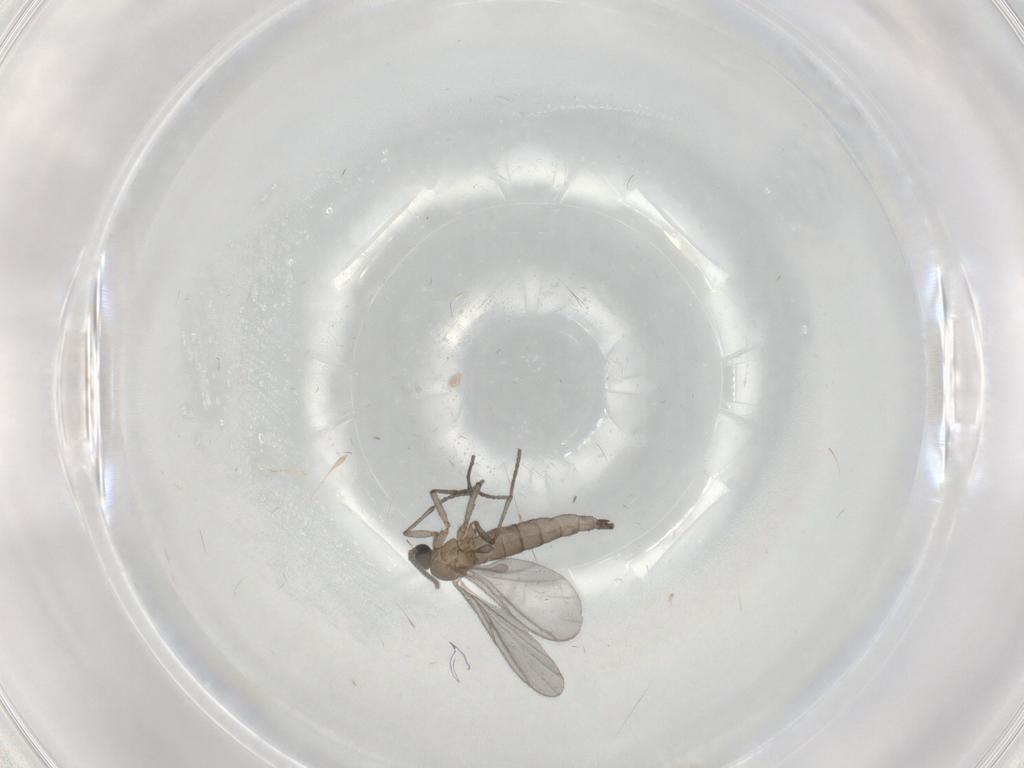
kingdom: Animalia
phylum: Arthropoda
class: Insecta
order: Diptera
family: Sciaridae
